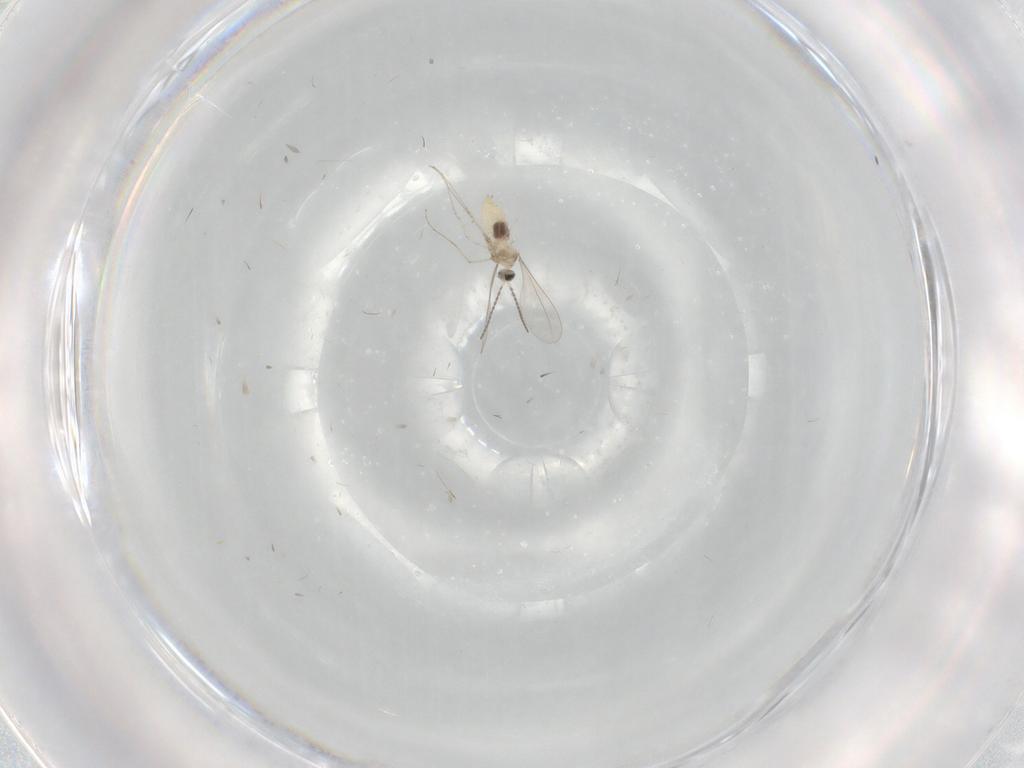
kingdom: Animalia
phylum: Arthropoda
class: Insecta
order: Diptera
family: Cecidomyiidae
